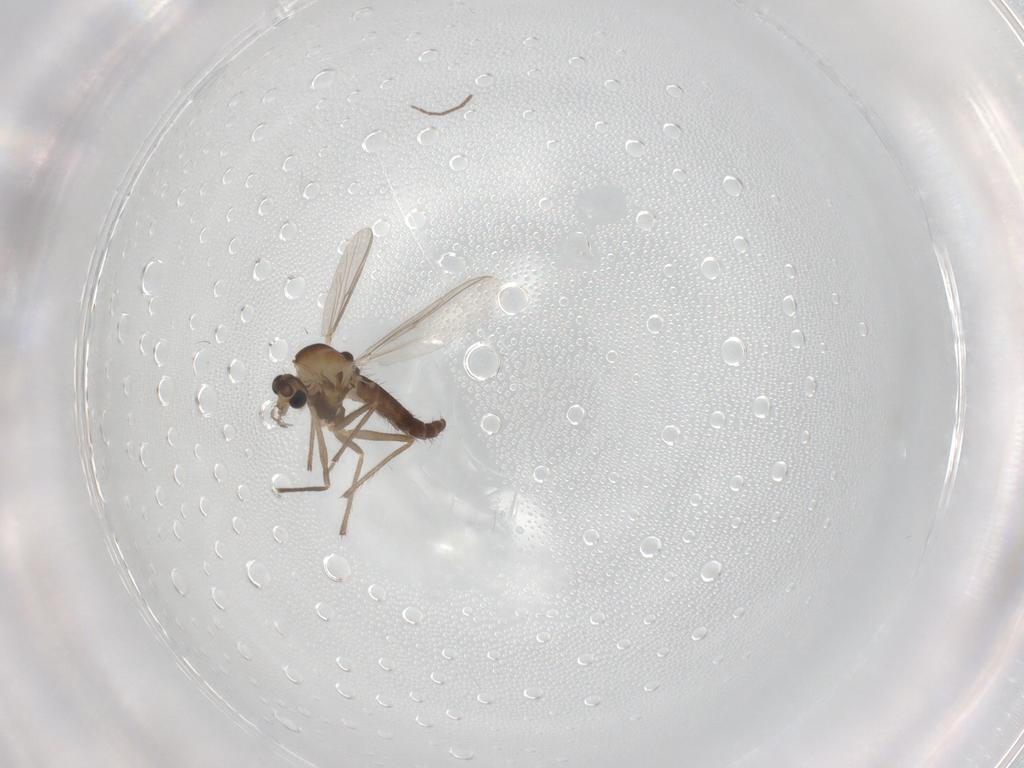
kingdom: Animalia
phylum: Arthropoda
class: Insecta
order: Diptera
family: Chironomidae
